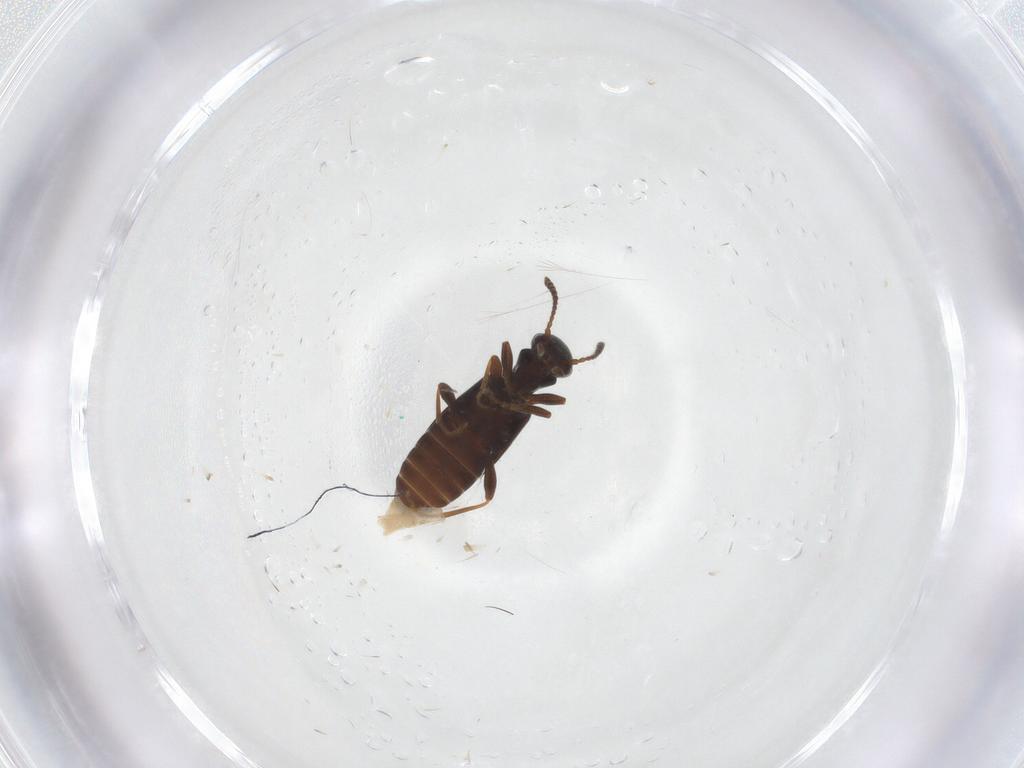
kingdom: Animalia
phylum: Arthropoda
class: Insecta
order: Coleoptera
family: Anthicidae
